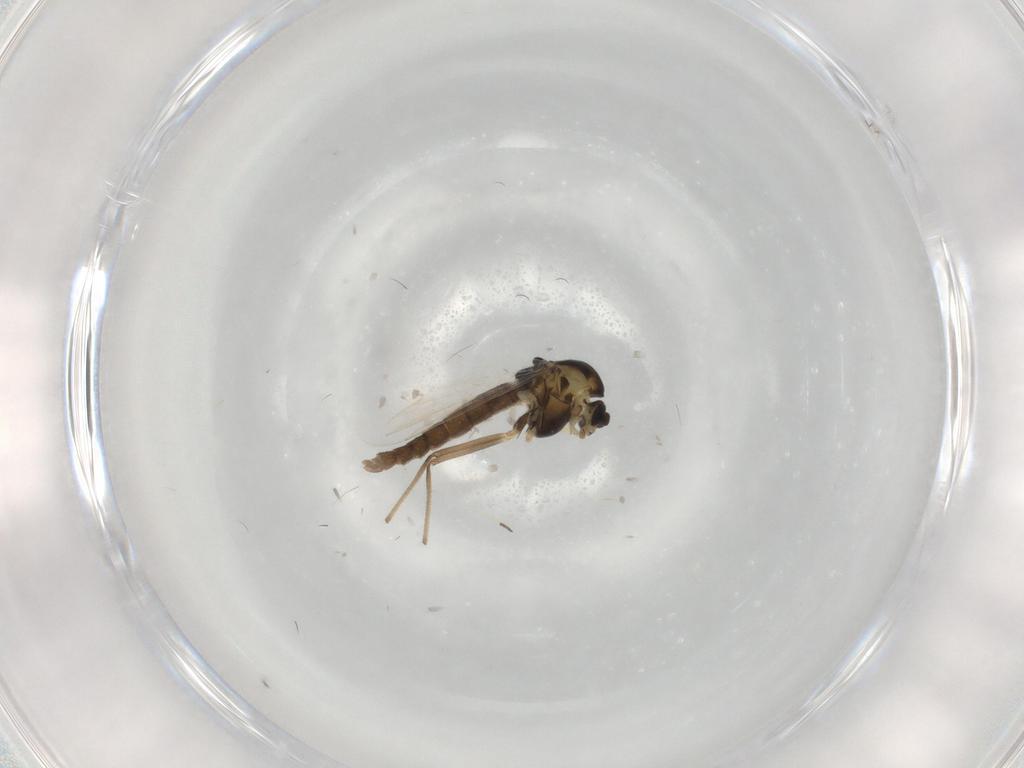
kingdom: Animalia
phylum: Arthropoda
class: Insecta
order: Diptera
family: Chironomidae
